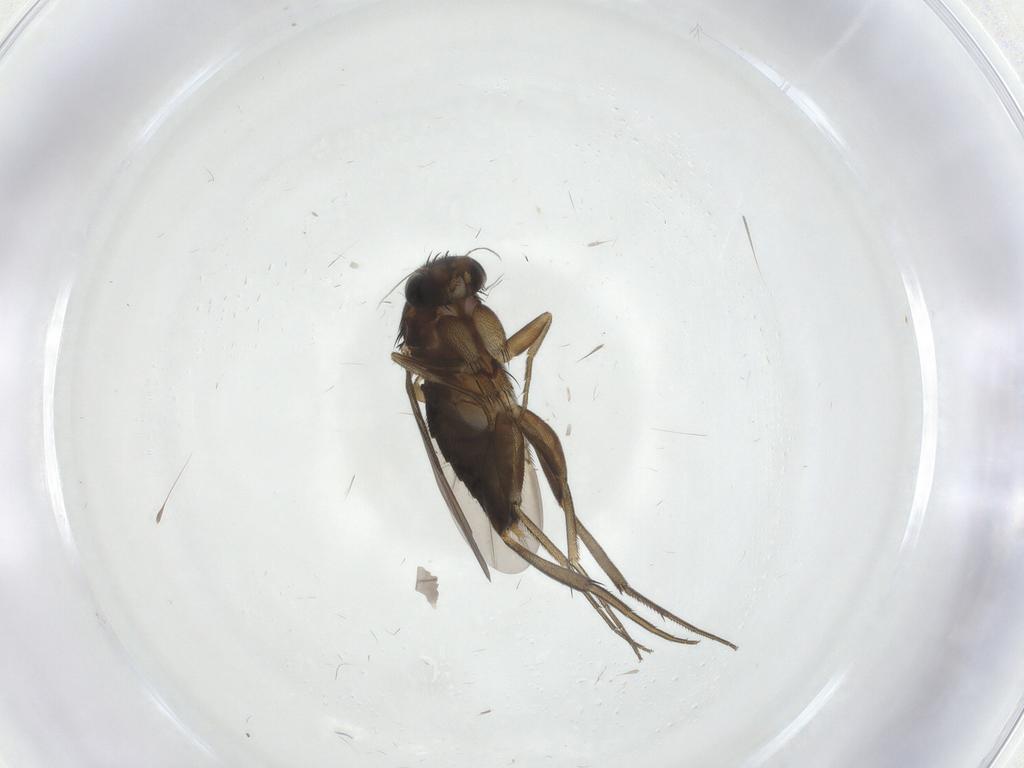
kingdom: Animalia
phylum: Arthropoda
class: Insecta
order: Diptera
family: Phoridae
